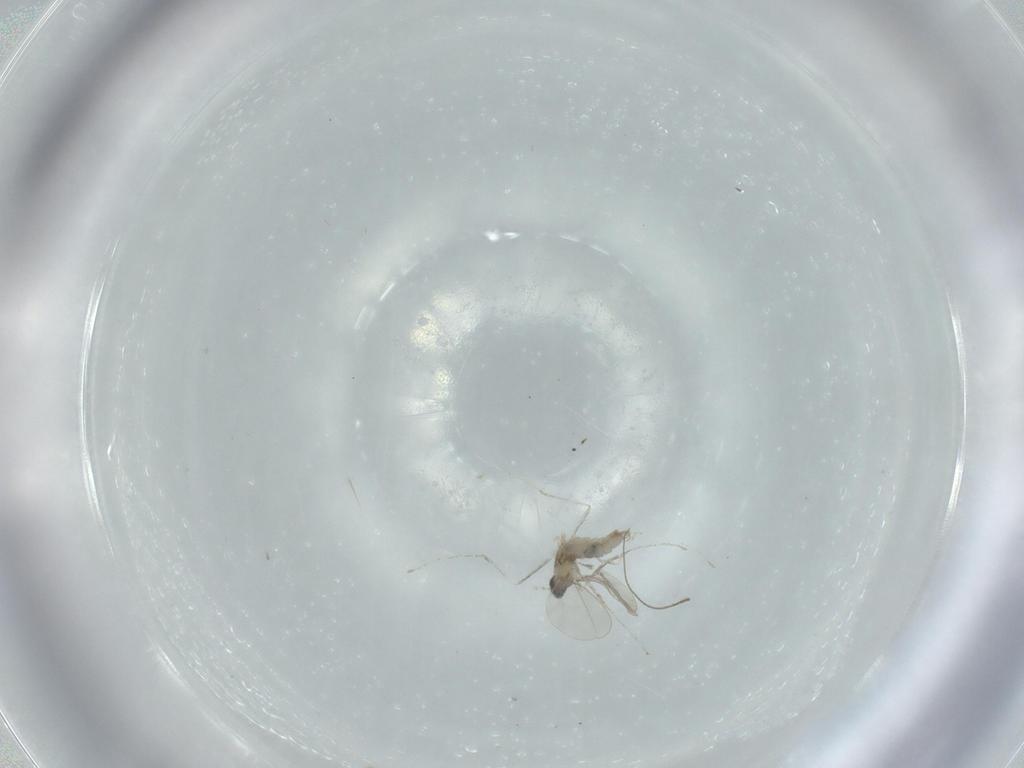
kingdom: Animalia
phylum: Arthropoda
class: Insecta
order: Diptera
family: Cecidomyiidae
